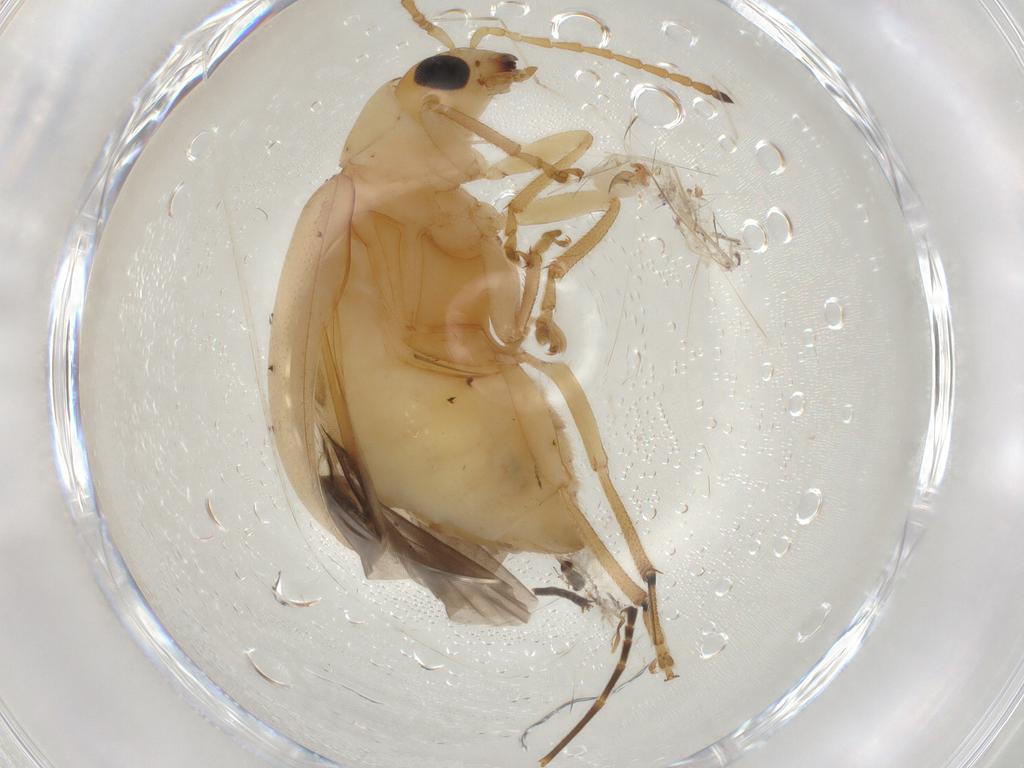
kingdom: Animalia
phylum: Arthropoda
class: Insecta
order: Coleoptera
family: Chrysomelidae
